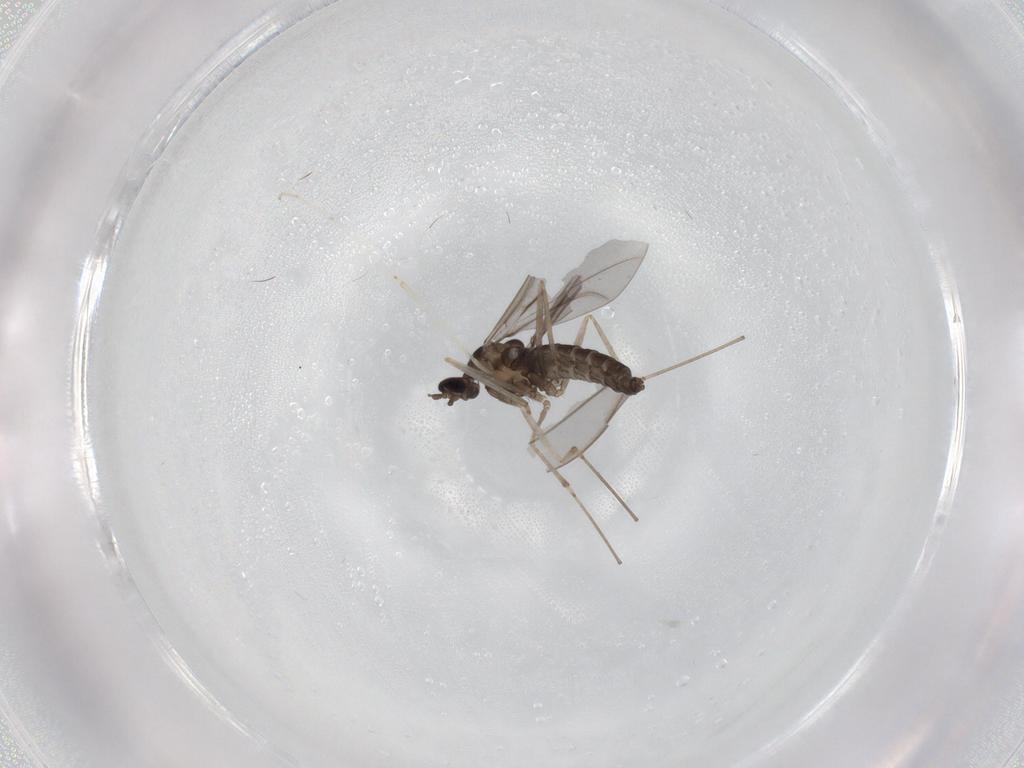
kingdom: Animalia
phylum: Arthropoda
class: Insecta
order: Diptera
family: Cecidomyiidae
